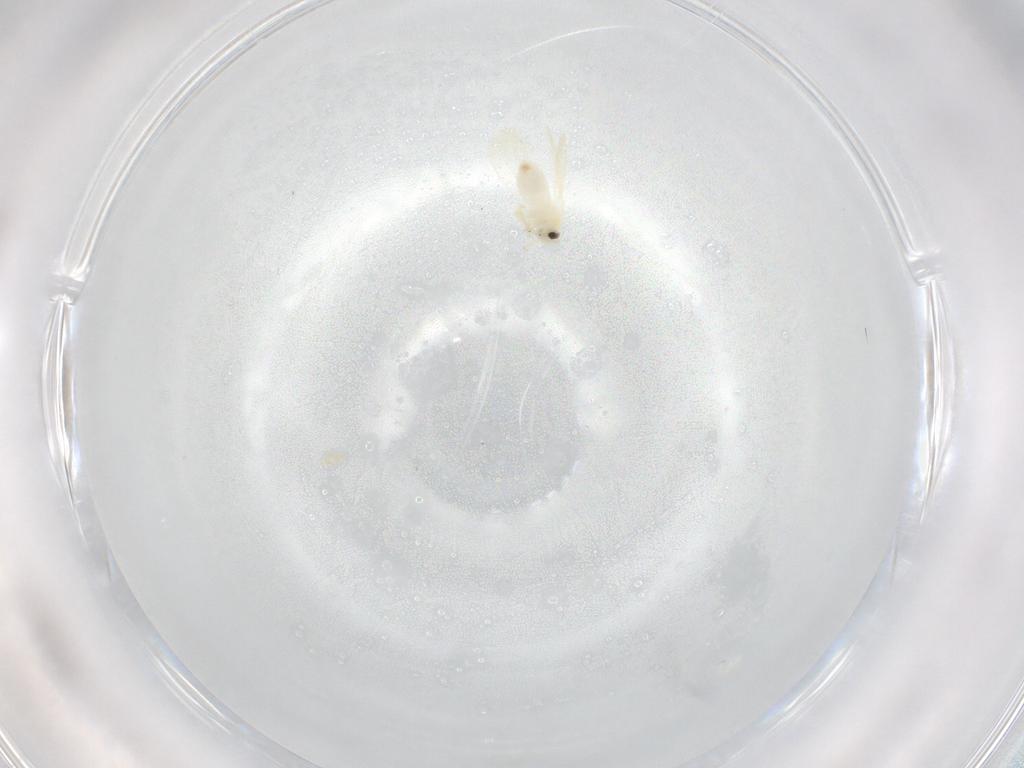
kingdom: Animalia
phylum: Arthropoda
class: Insecta
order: Hemiptera
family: Aleyrodidae
